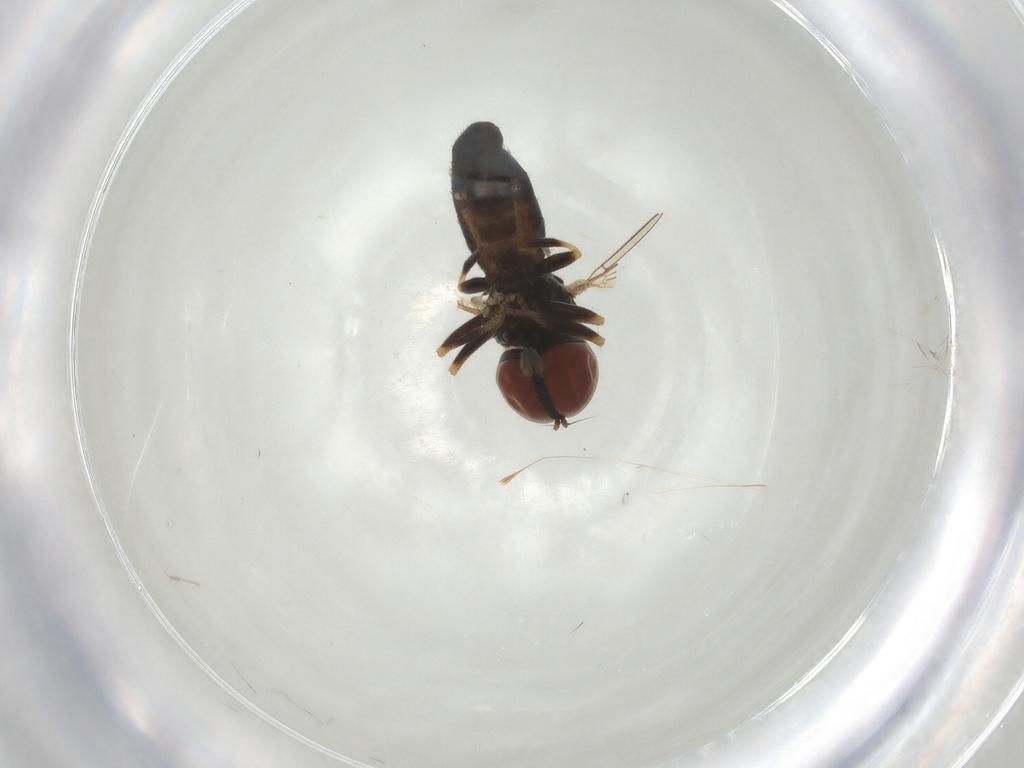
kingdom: Animalia
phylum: Arthropoda
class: Insecta
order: Diptera
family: Pipunculidae
